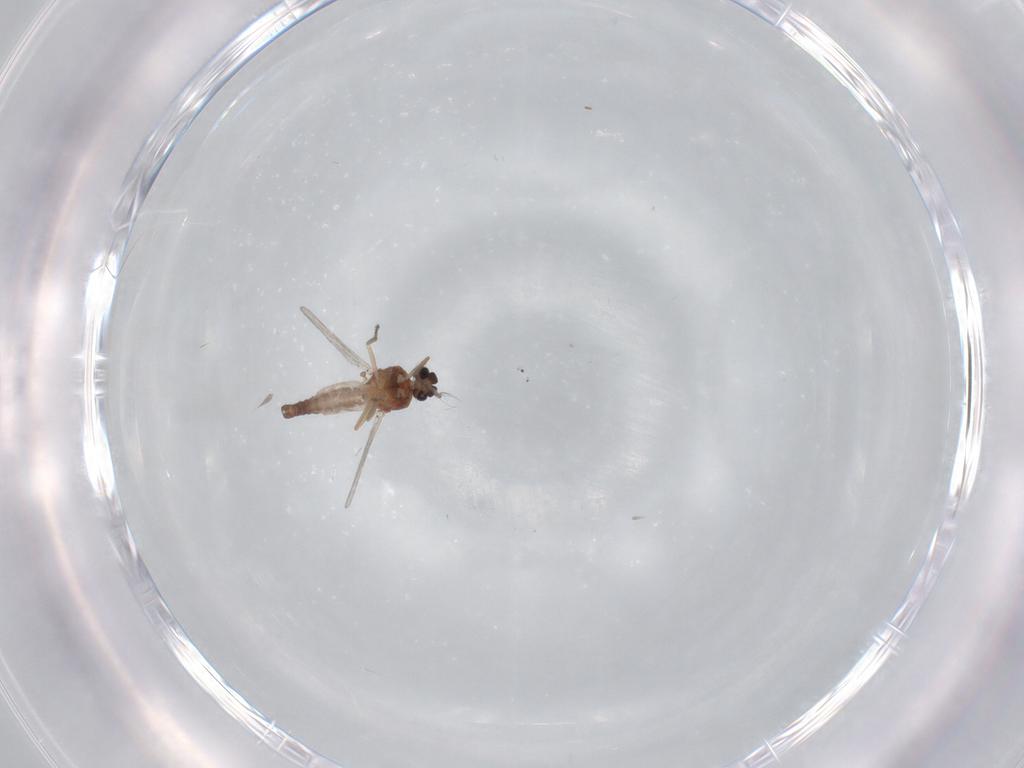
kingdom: Animalia
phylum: Arthropoda
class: Insecta
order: Diptera
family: Ceratopogonidae
